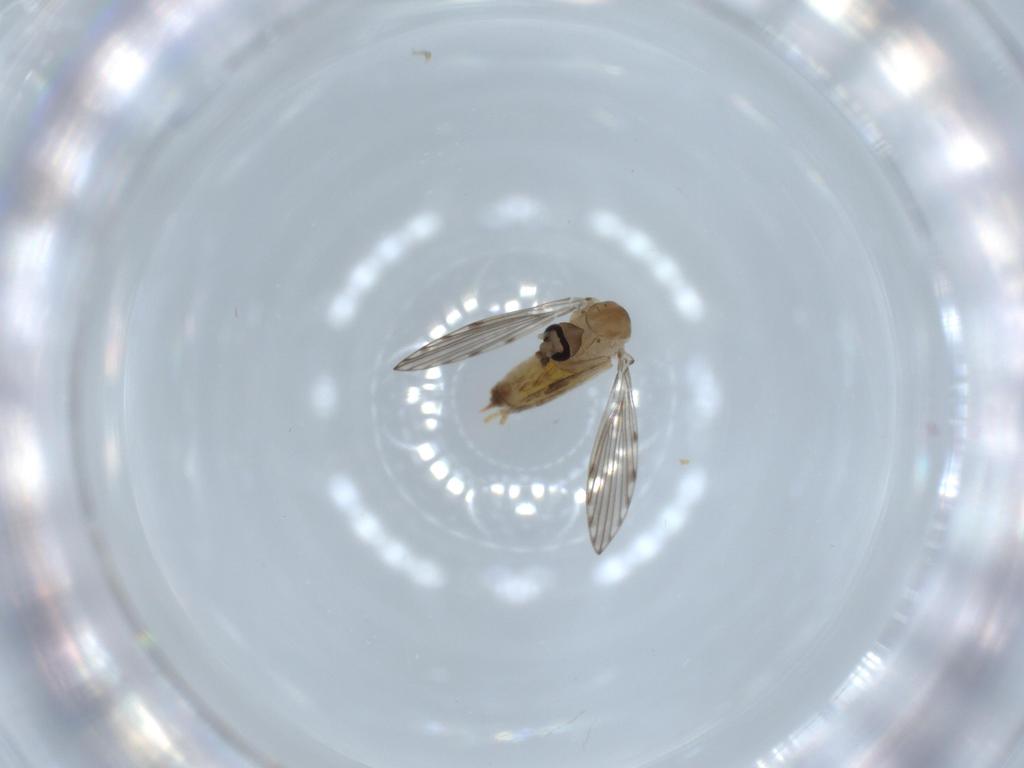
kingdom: Animalia
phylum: Arthropoda
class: Insecta
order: Diptera
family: Psychodidae
